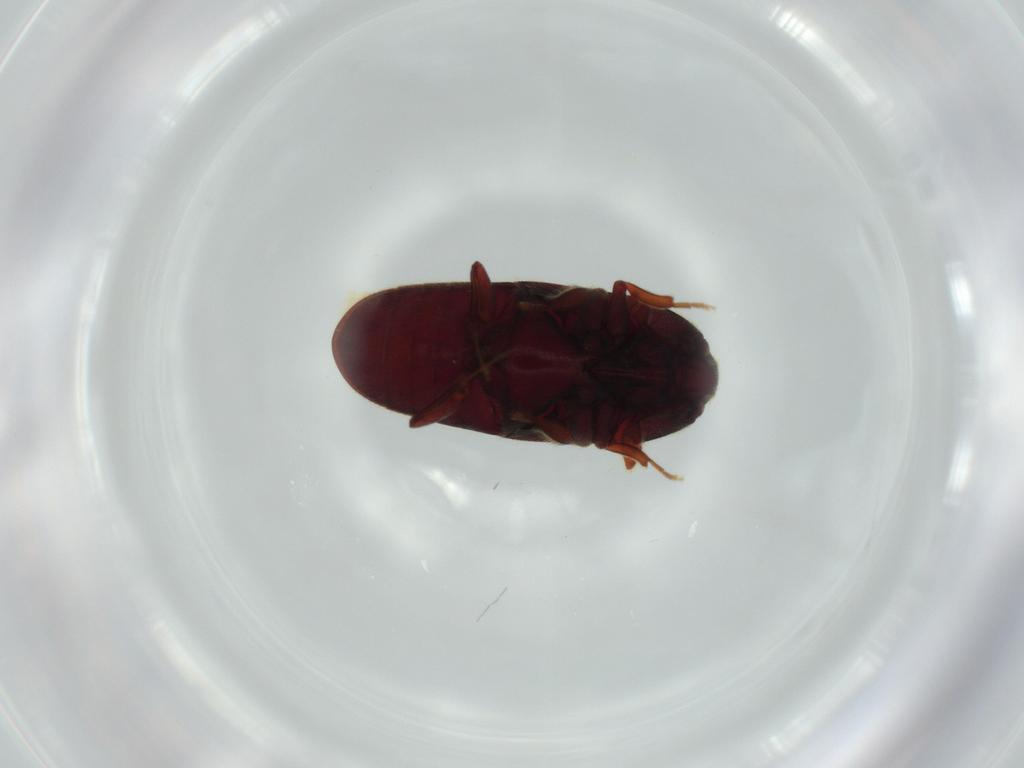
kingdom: Animalia
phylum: Arthropoda
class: Insecta
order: Coleoptera
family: Throscidae
